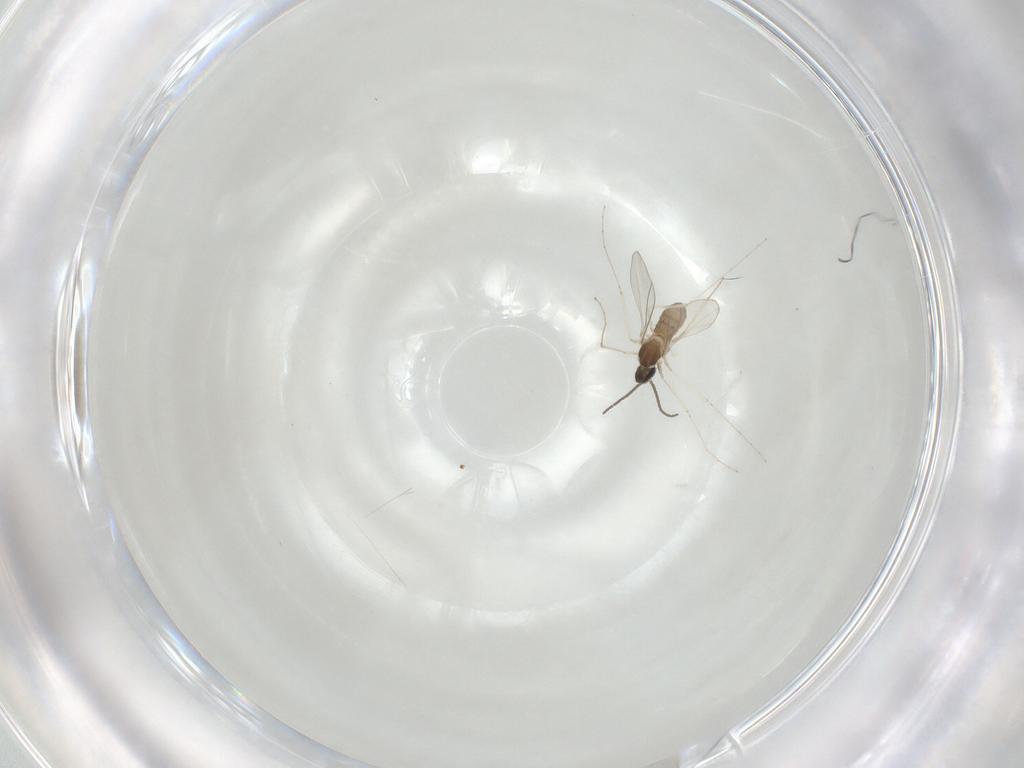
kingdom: Animalia
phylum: Arthropoda
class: Insecta
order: Diptera
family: Cecidomyiidae
